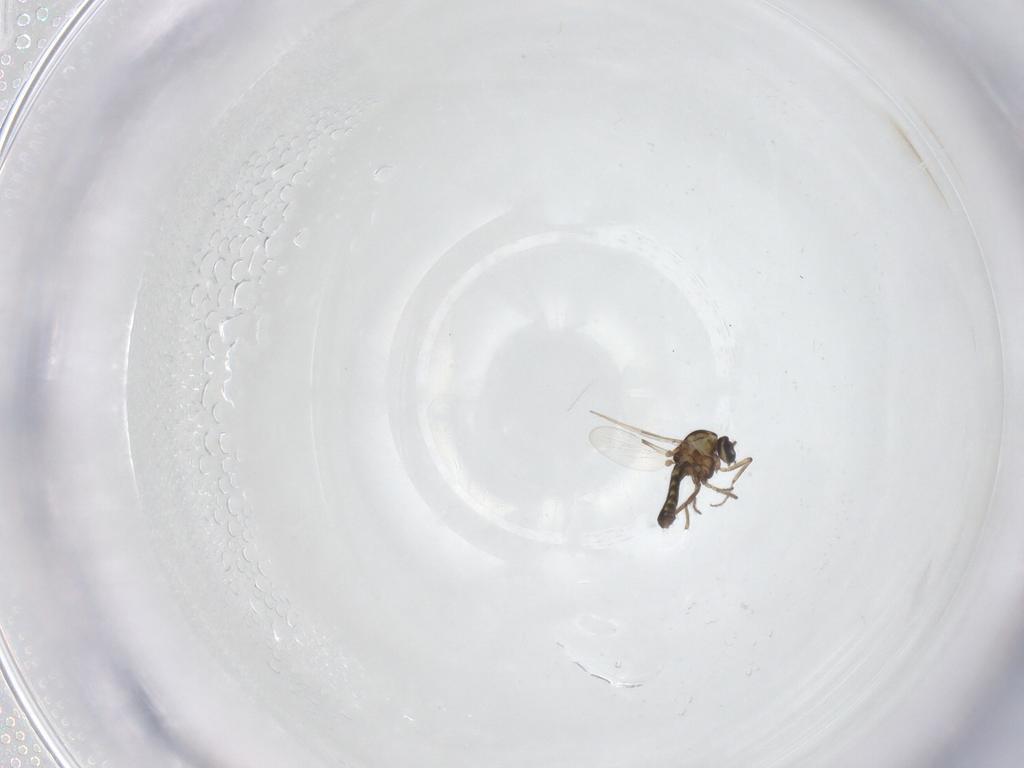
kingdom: Animalia
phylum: Arthropoda
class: Insecta
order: Diptera
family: Ceratopogonidae
